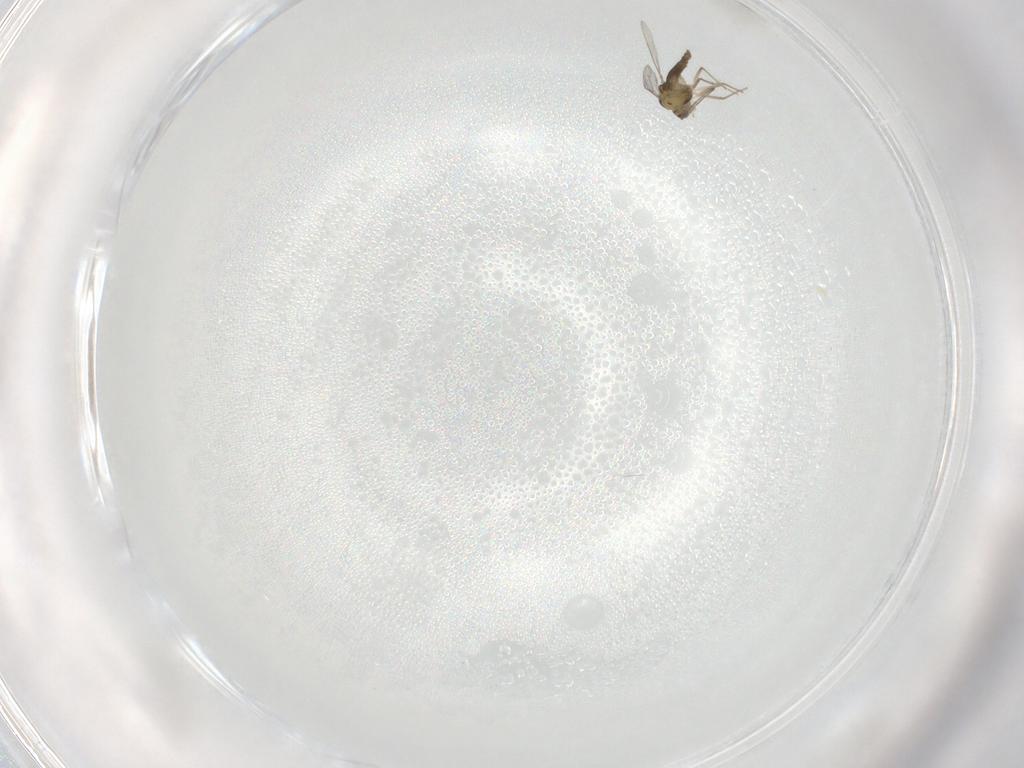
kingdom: Animalia
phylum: Arthropoda
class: Insecta
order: Diptera
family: Chironomidae
